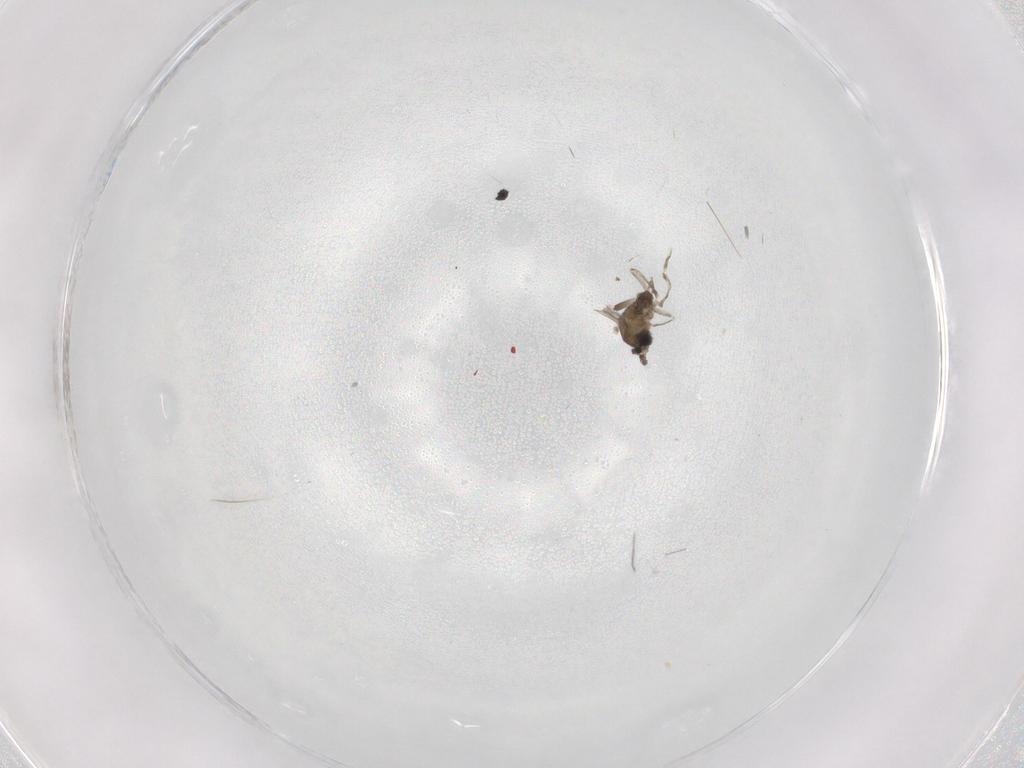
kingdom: Animalia
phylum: Arthropoda
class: Insecta
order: Diptera
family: Cecidomyiidae
